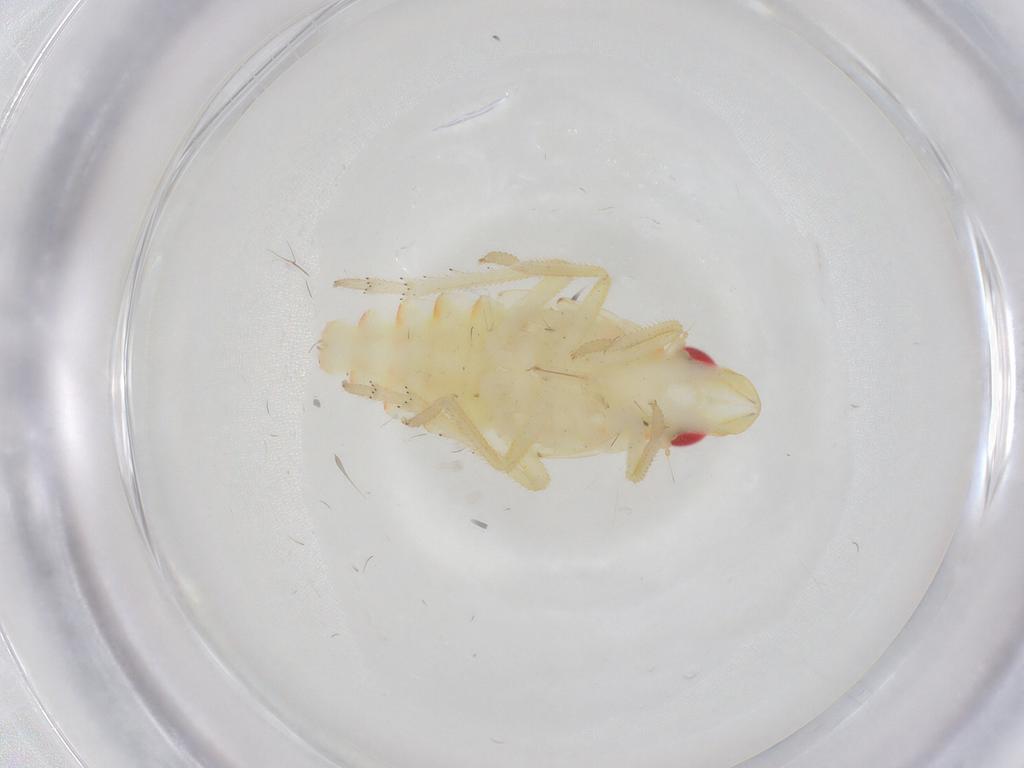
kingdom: Animalia
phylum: Arthropoda
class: Insecta
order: Hemiptera
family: Tropiduchidae
